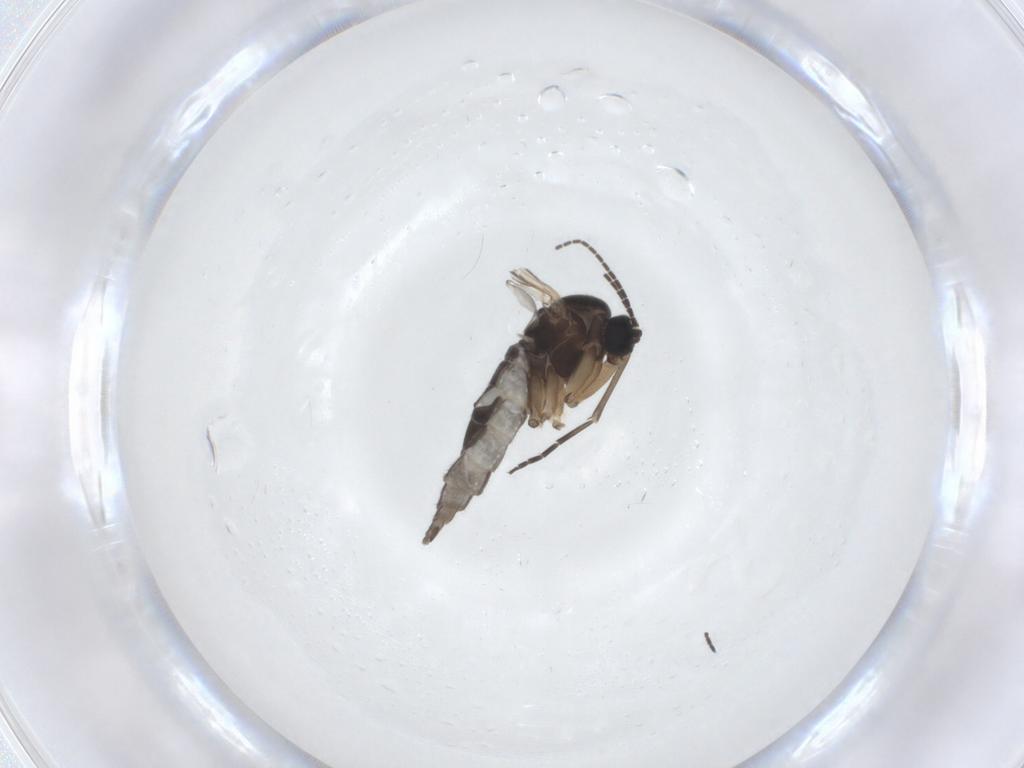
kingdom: Animalia
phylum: Arthropoda
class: Insecta
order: Diptera
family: Sciaridae
